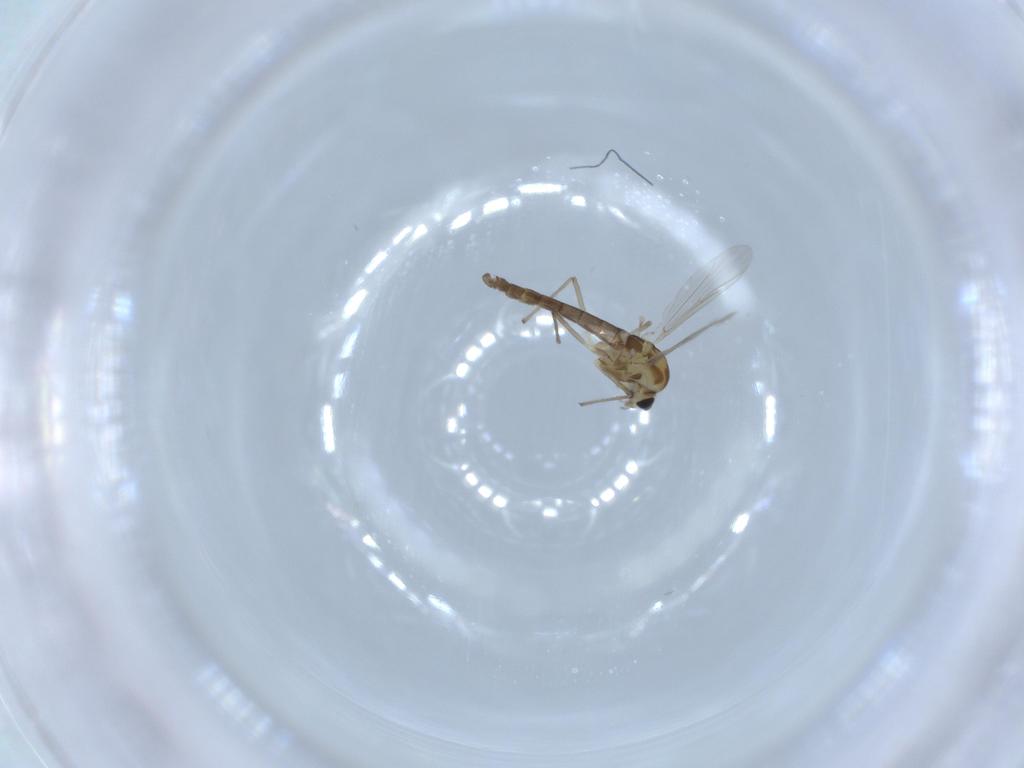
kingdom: Animalia
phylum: Arthropoda
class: Insecta
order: Diptera
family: Chironomidae
